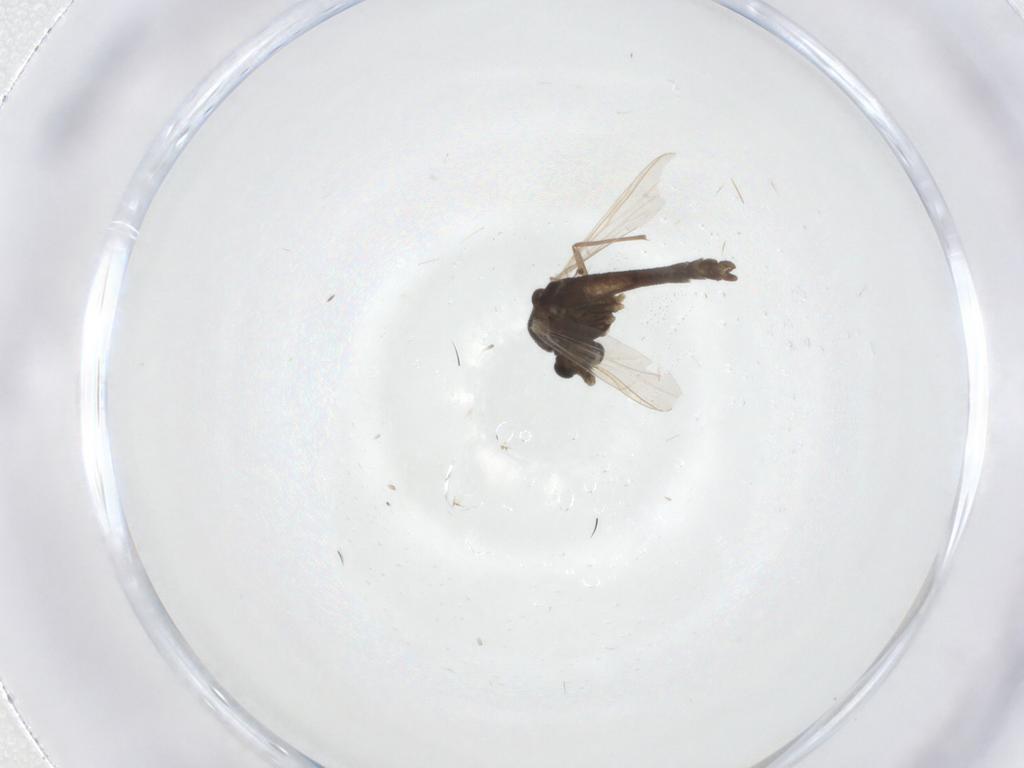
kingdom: Animalia
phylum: Arthropoda
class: Insecta
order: Diptera
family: Chironomidae
